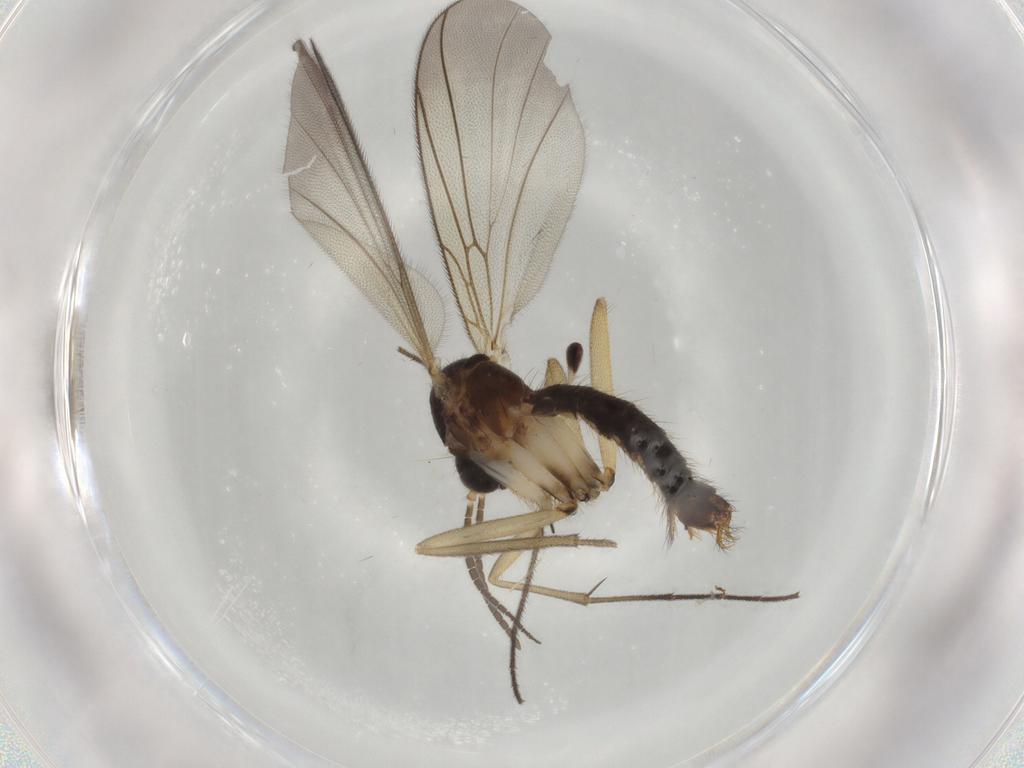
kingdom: Animalia
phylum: Arthropoda
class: Insecta
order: Diptera
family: Mycetophilidae
